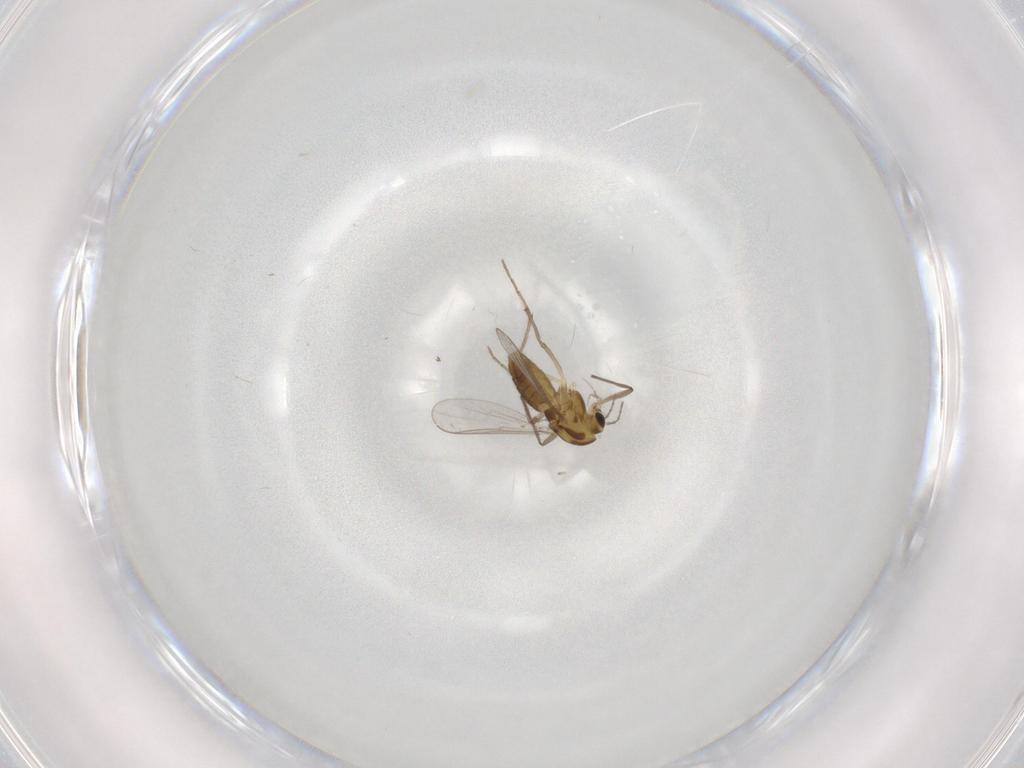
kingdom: Animalia
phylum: Arthropoda
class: Insecta
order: Diptera
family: Chironomidae
